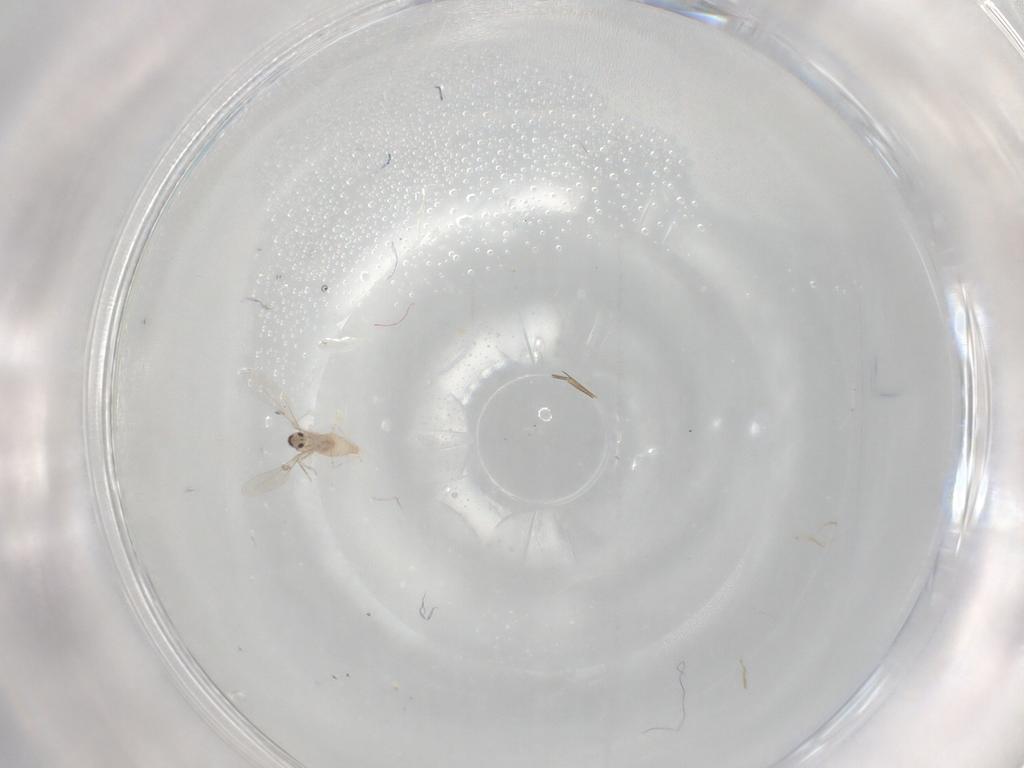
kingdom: Animalia
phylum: Arthropoda
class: Insecta
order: Diptera
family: Cecidomyiidae
